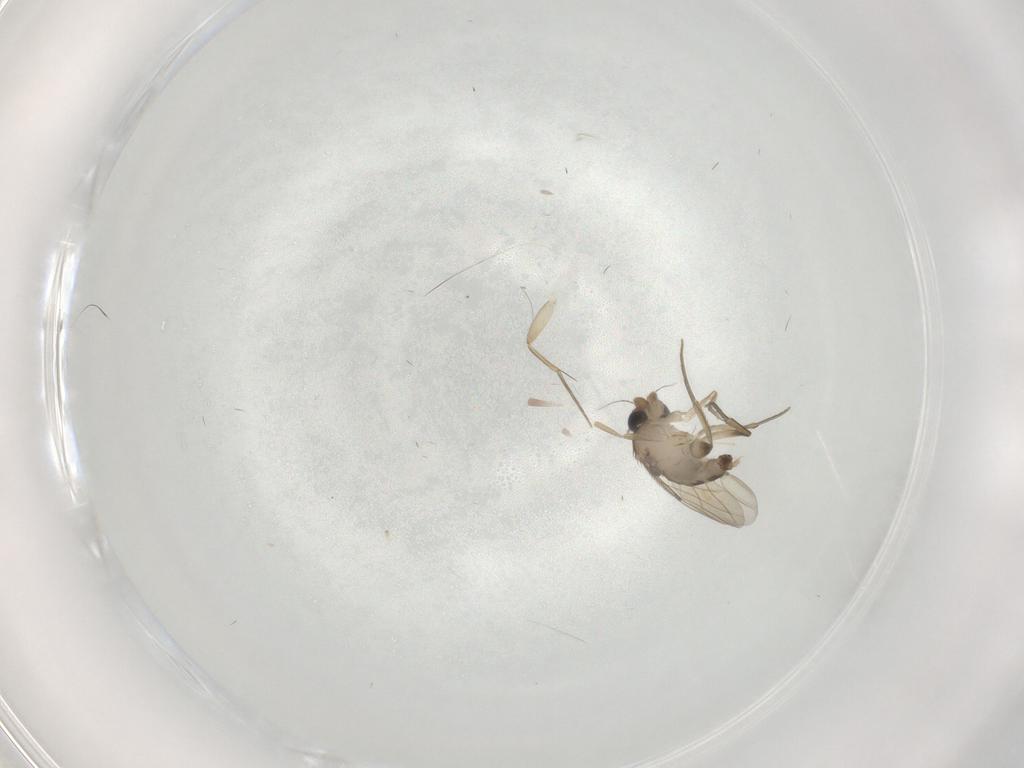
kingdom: Animalia
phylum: Arthropoda
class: Insecta
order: Diptera
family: Phoridae
